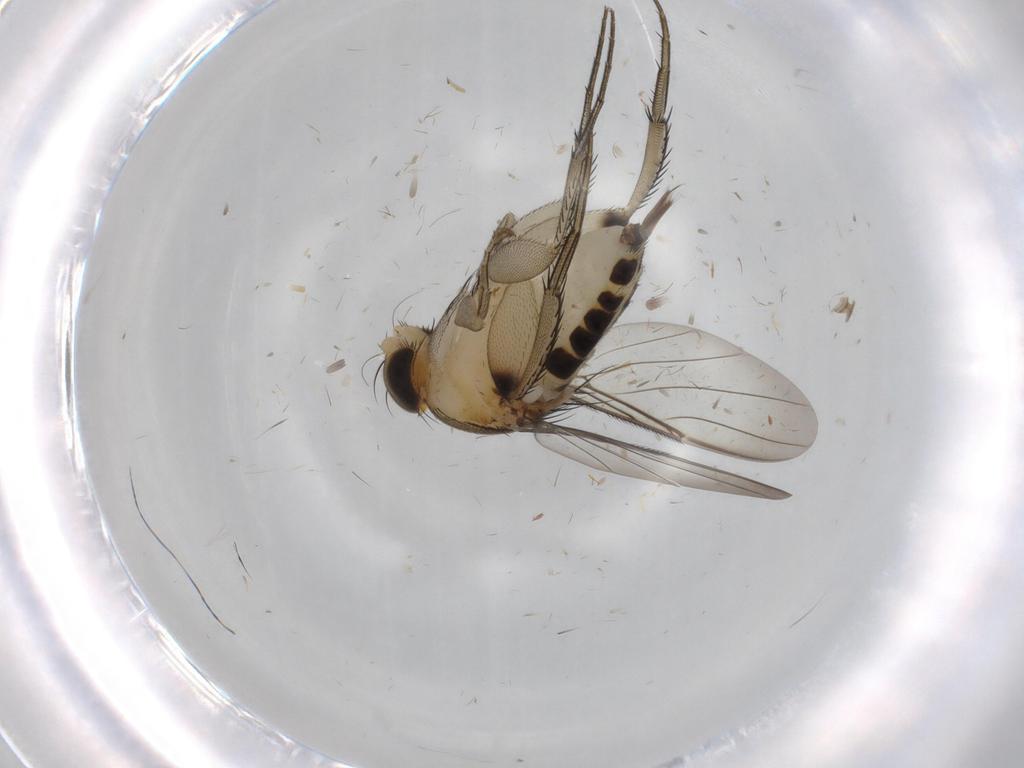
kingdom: Animalia
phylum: Arthropoda
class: Insecta
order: Diptera
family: Phoridae
